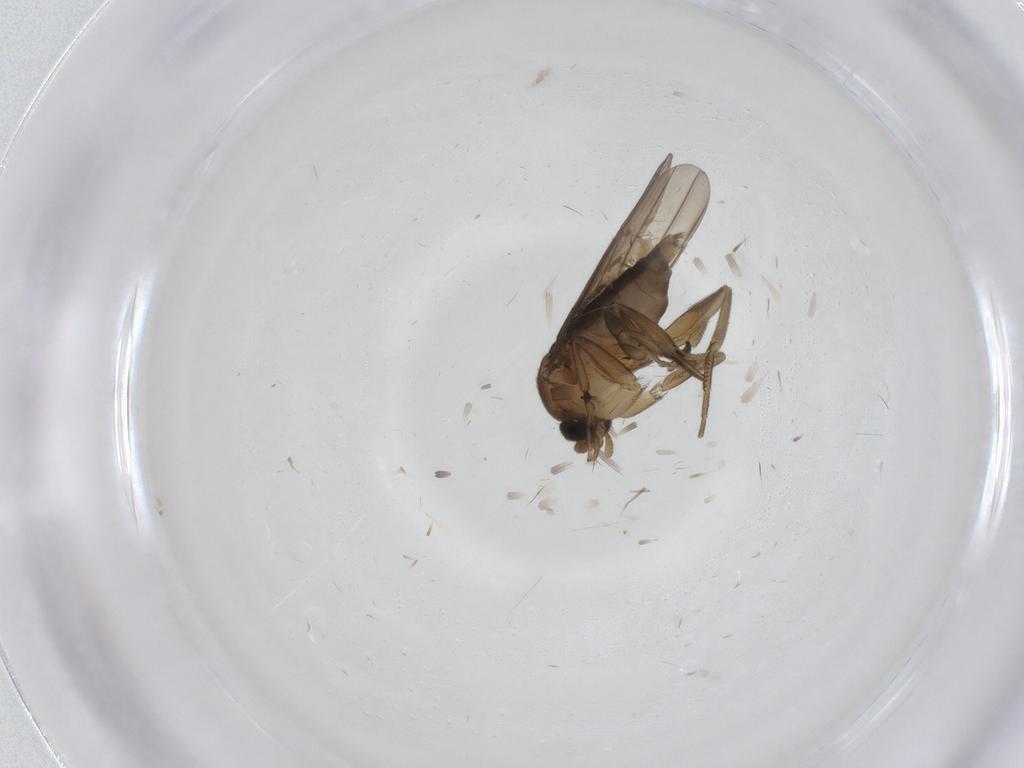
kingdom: Animalia
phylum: Arthropoda
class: Insecta
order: Diptera
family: Phoridae
